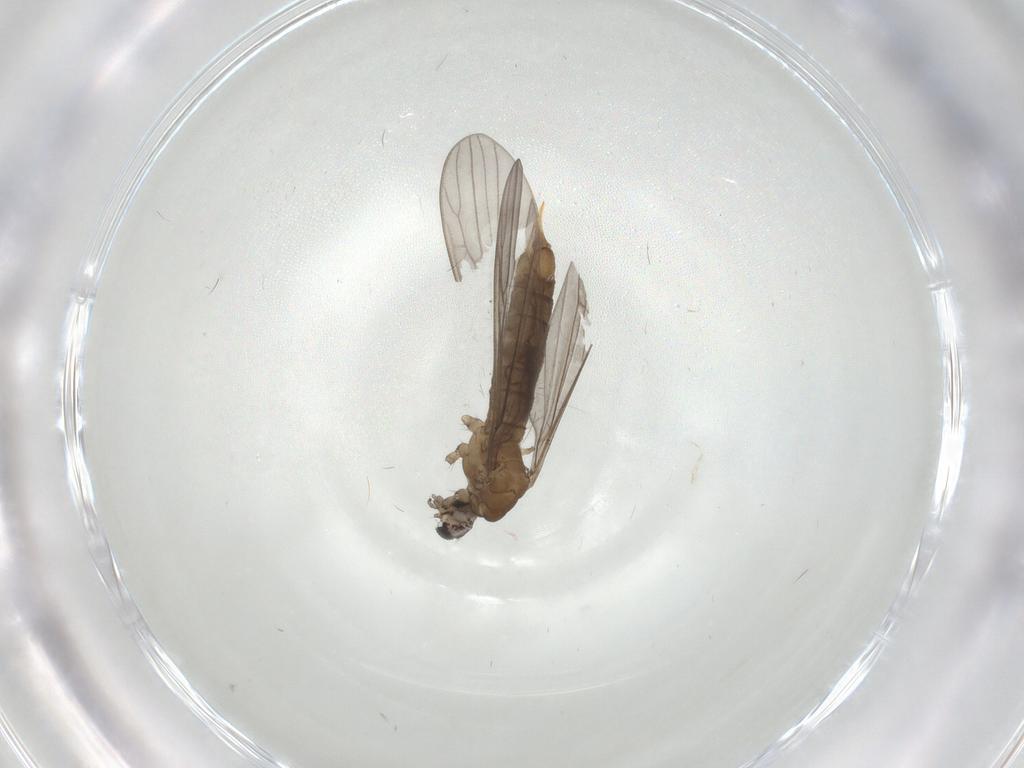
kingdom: Animalia
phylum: Arthropoda
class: Insecta
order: Diptera
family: Limoniidae
